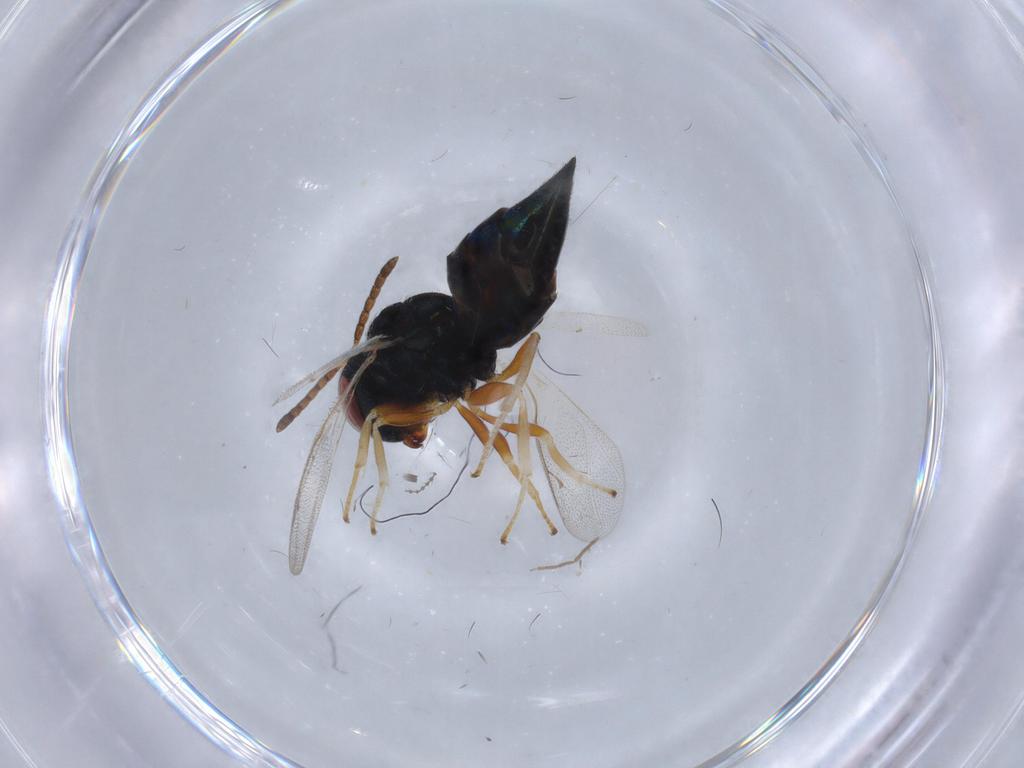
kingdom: Animalia
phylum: Arthropoda
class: Insecta
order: Hymenoptera
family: Pteromalidae
